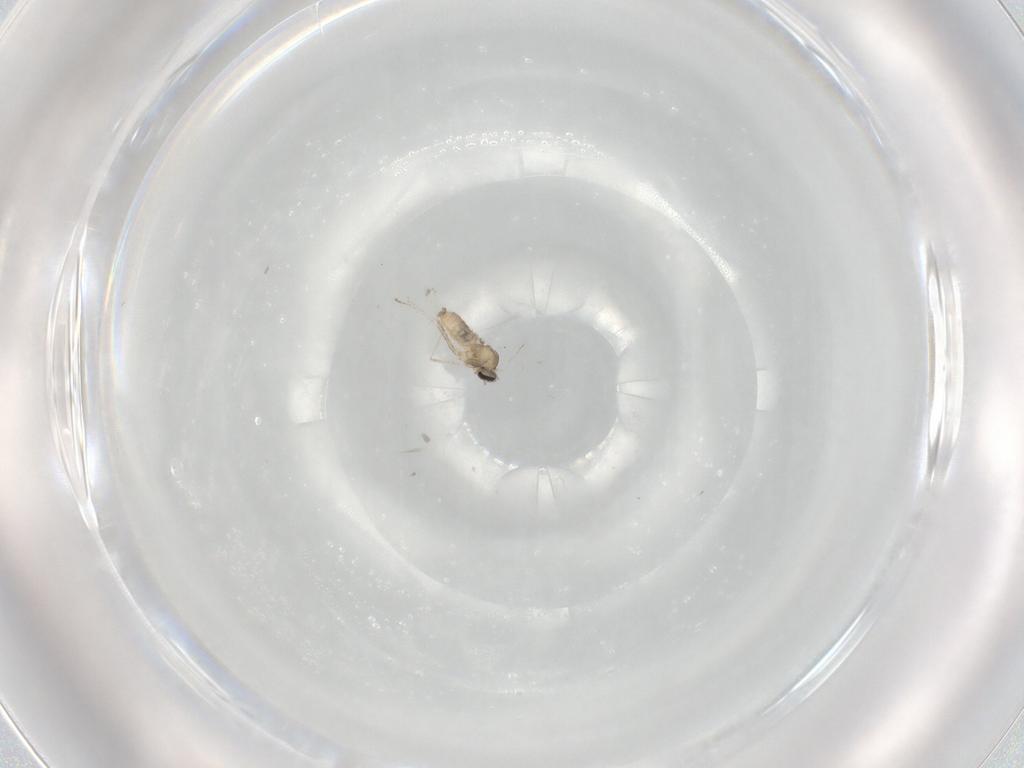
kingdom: Animalia
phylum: Arthropoda
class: Insecta
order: Diptera
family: Cecidomyiidae
